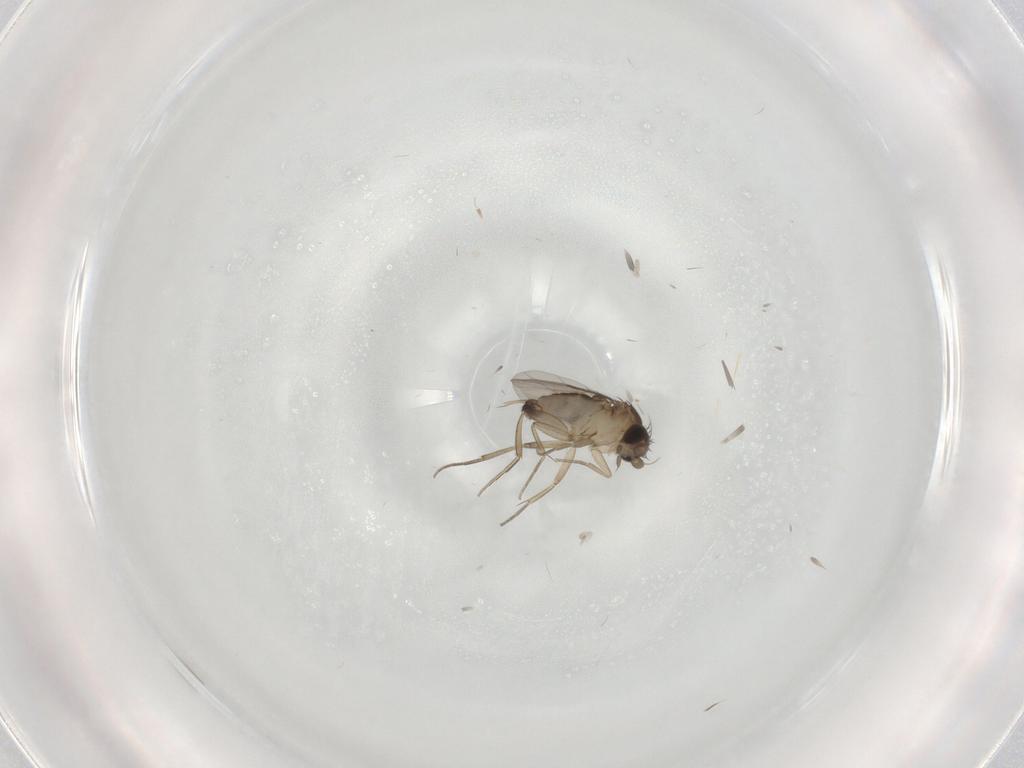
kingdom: Animalia
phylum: Arthropoda
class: Insecta
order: Diptera
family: Phoridae
